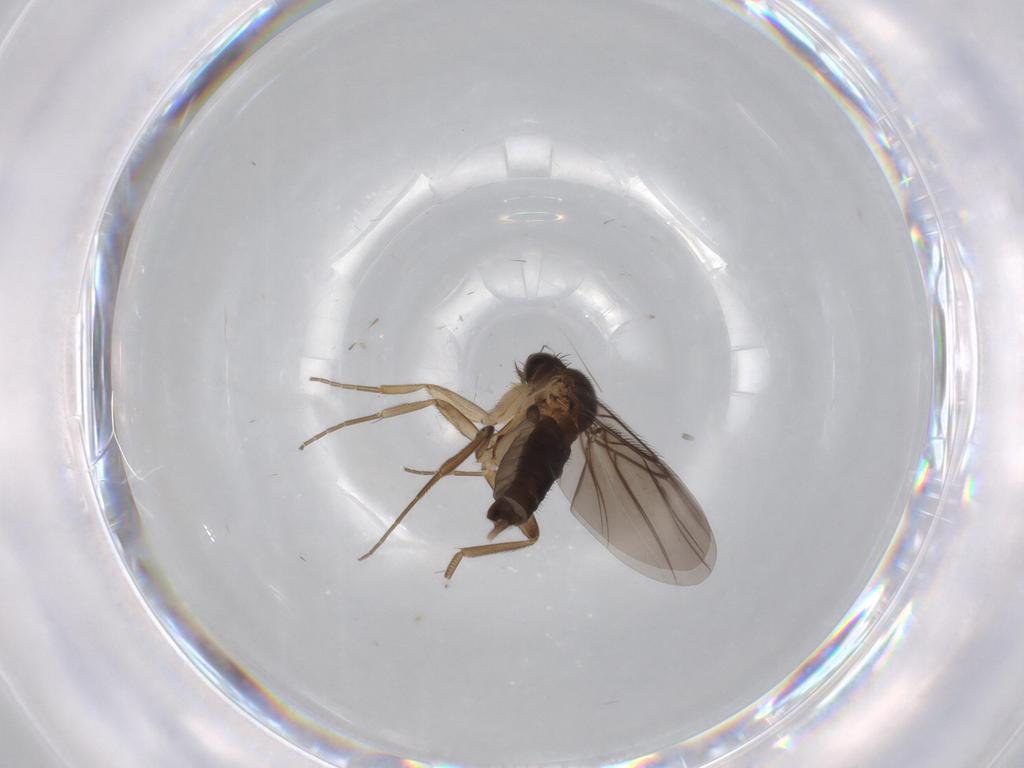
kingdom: Animalia
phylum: Arthropoda
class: Insecta
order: Diptera
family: Phoridae
